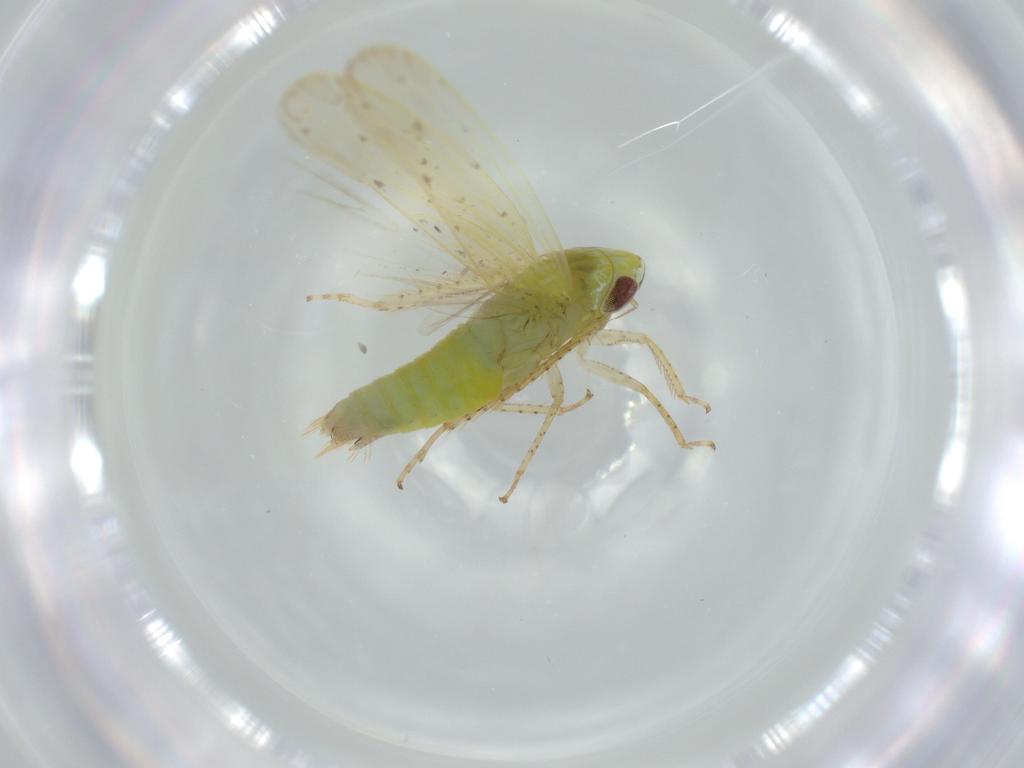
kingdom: Animalia
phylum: Arthropoda
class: Insecta
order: Hemiptera
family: Cicadellidae
